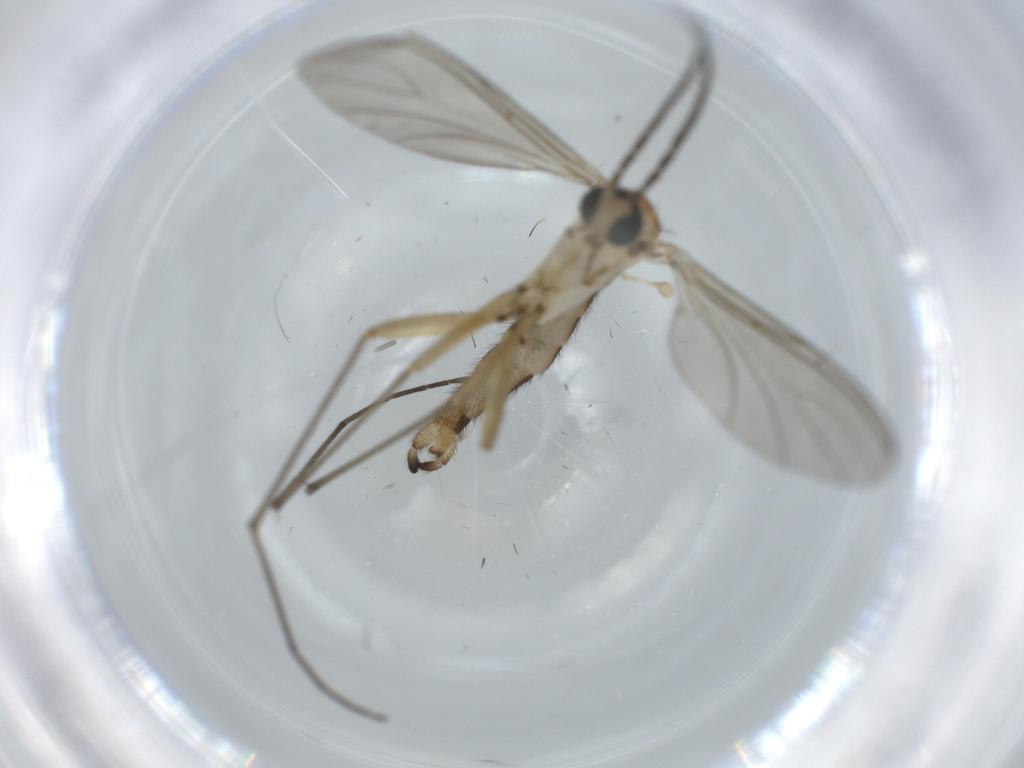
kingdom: Animalia
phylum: Arthropoda
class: Insecta
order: Diptera
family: Sciaridae
